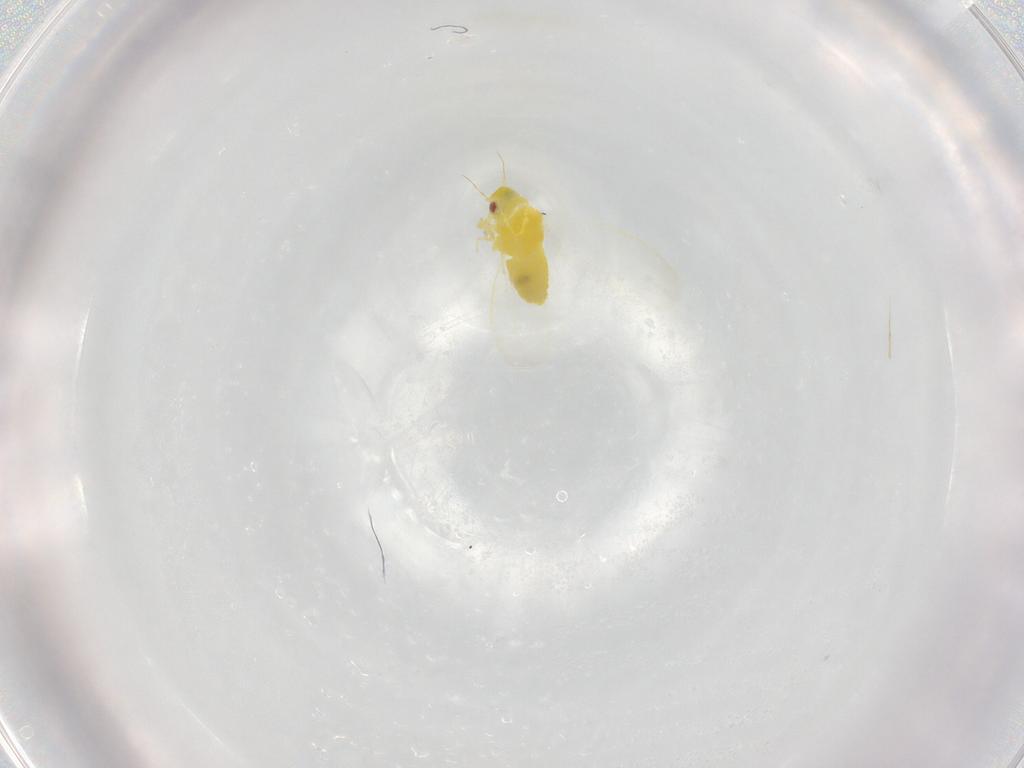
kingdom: Animalia
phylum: Arthropoda
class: Insecta
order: Hemiptera
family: Aleyrodidae
